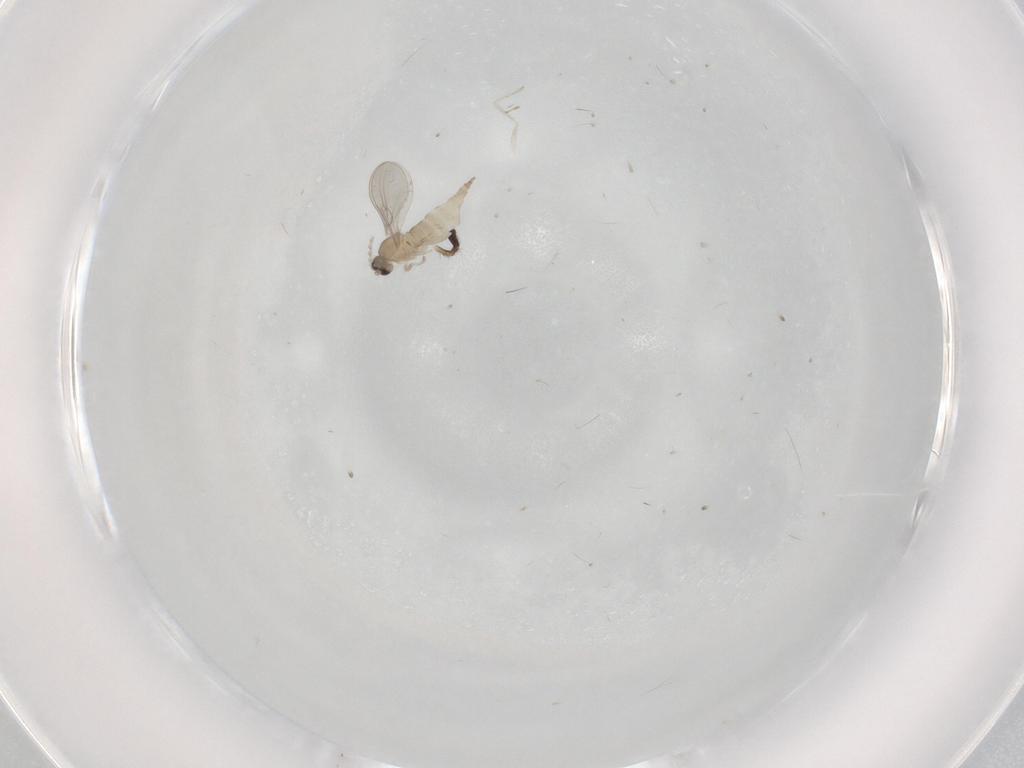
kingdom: Animalia
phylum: Arthropoda
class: Insecta
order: Diptera
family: Cecidomyiidae
